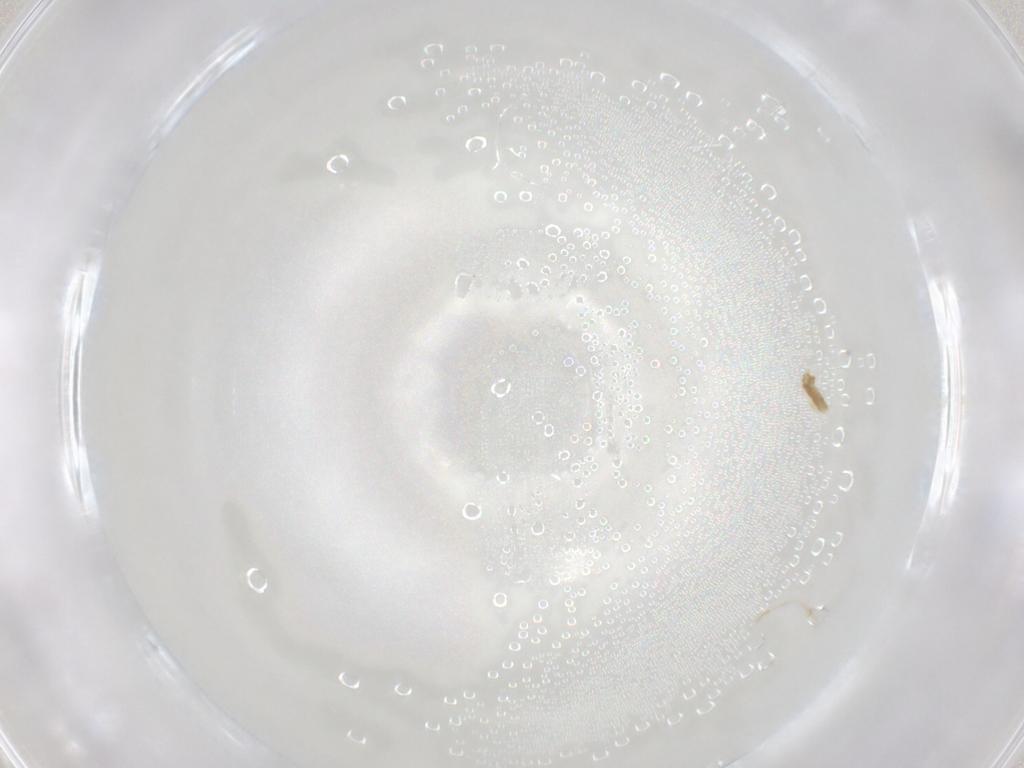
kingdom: Animalia
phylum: Arthropoda
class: Arachnida
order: Trombidiformes
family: Eupodidae
